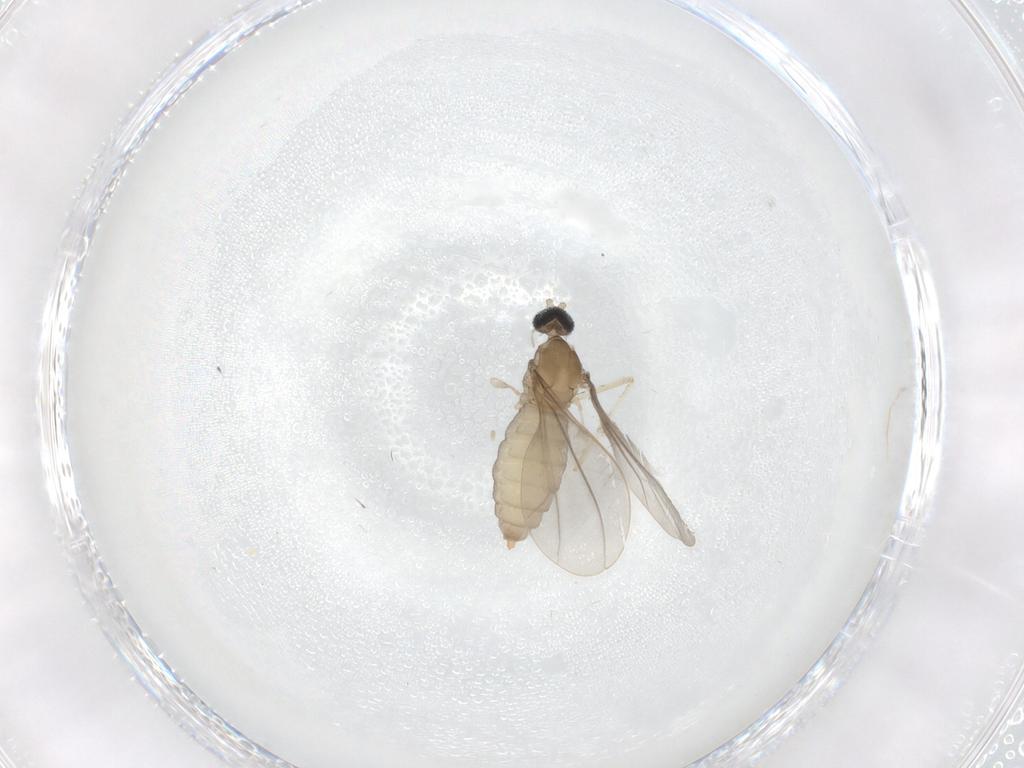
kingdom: Animalia
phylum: Arthropoda
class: Insecta
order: Diptera
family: Cecidomyiidae
